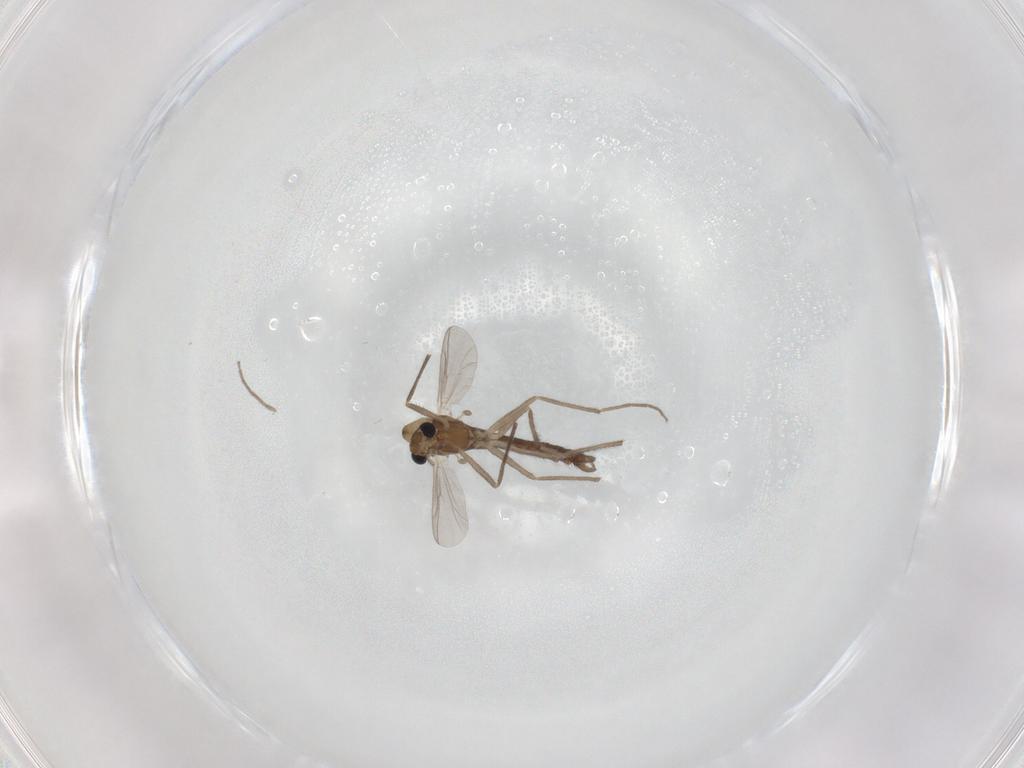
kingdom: Animalia
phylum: Arthropoda
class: Insecta
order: Diptera
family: Chironomidae
